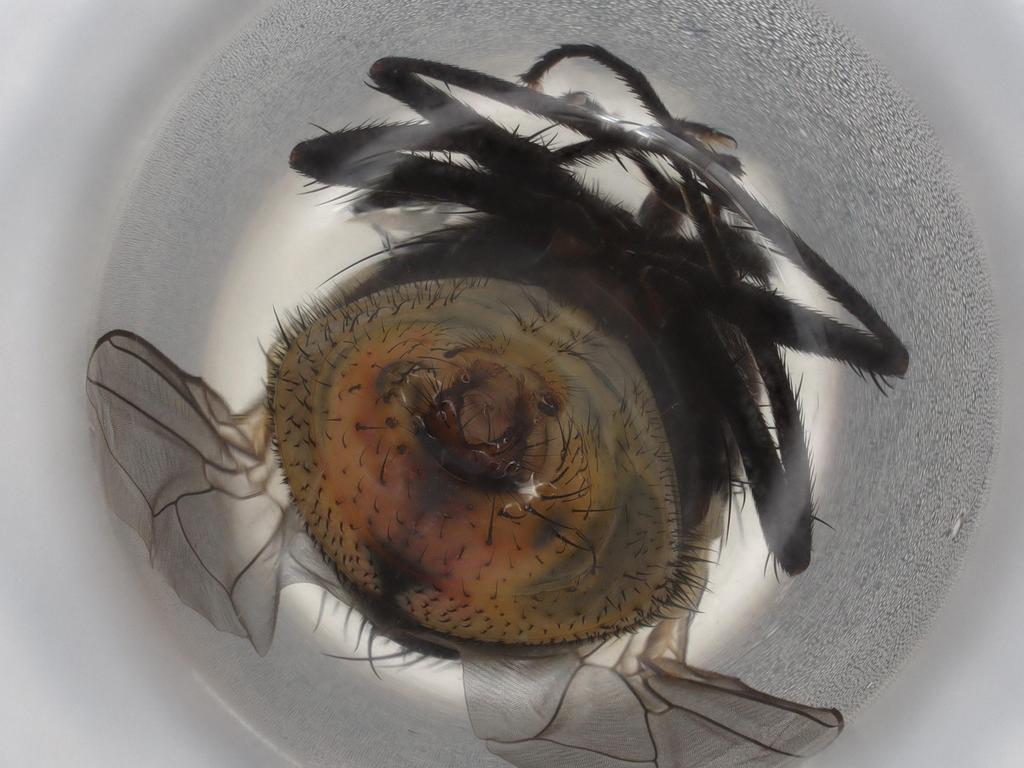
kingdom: Animalia
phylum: Arthropoda
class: Insecta
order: Diptera
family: Muscidae
